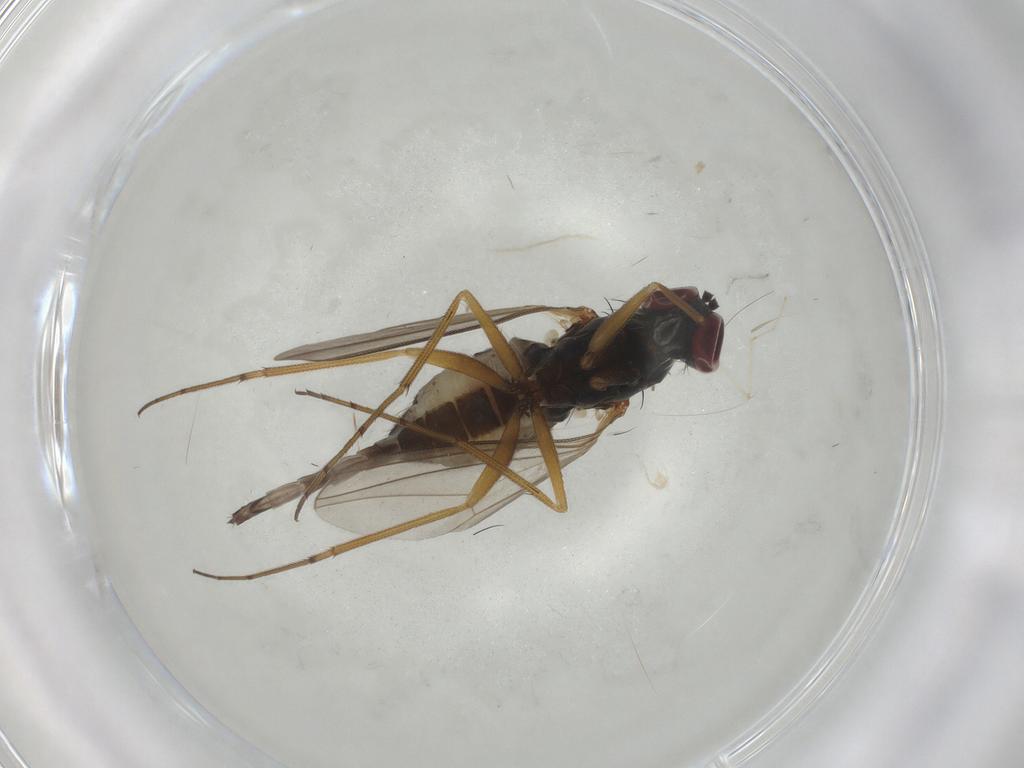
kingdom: Animalia
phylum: Arthropoda
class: Insecta
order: Diptera
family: Dolichopodidae
